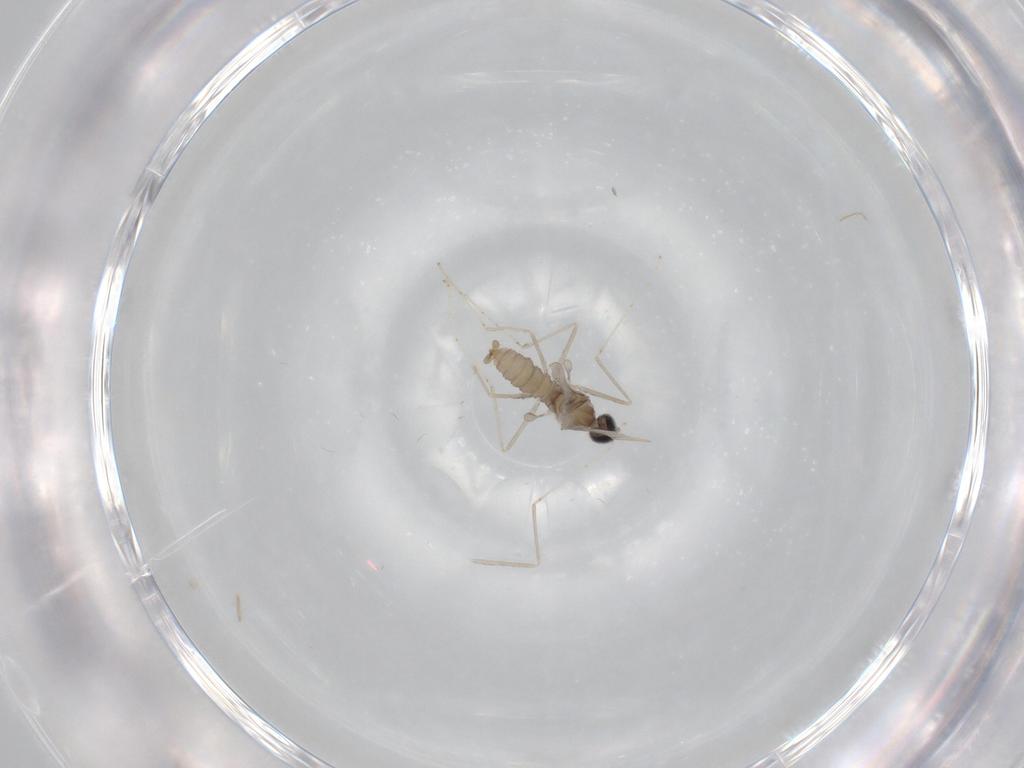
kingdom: Animalia
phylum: Arthropoda
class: Insecta
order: Diptera
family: Cecidomyiidae
